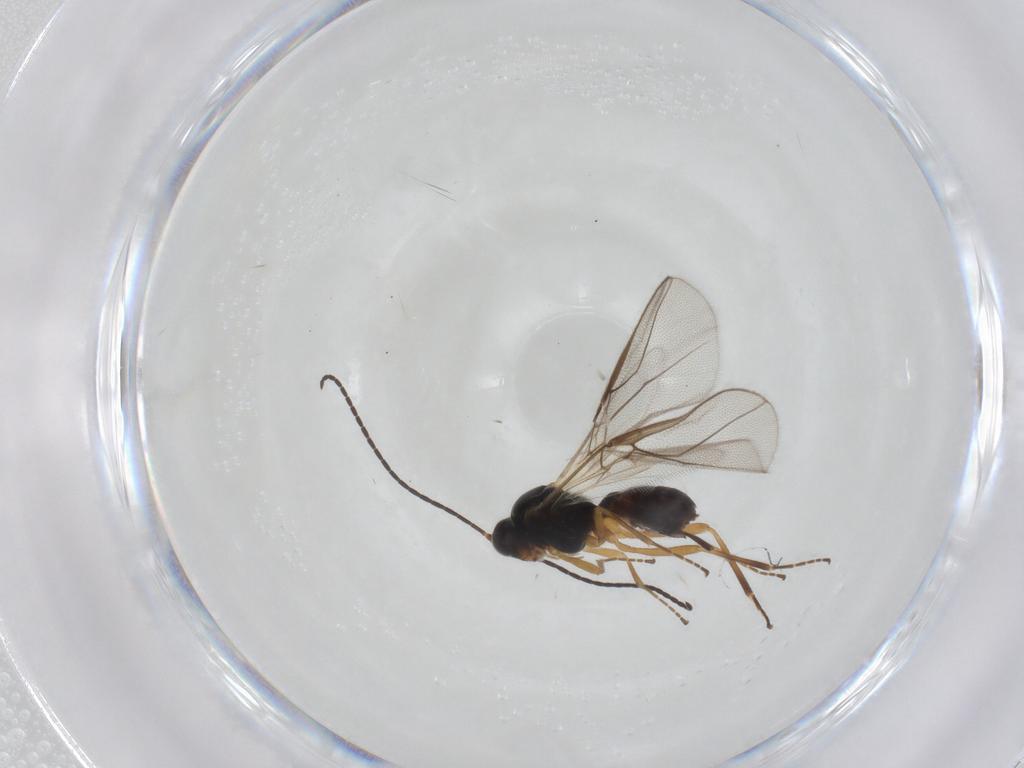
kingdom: Animalia
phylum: Arthropoda
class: Insecta
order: Hymenoptera
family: Braconidae
